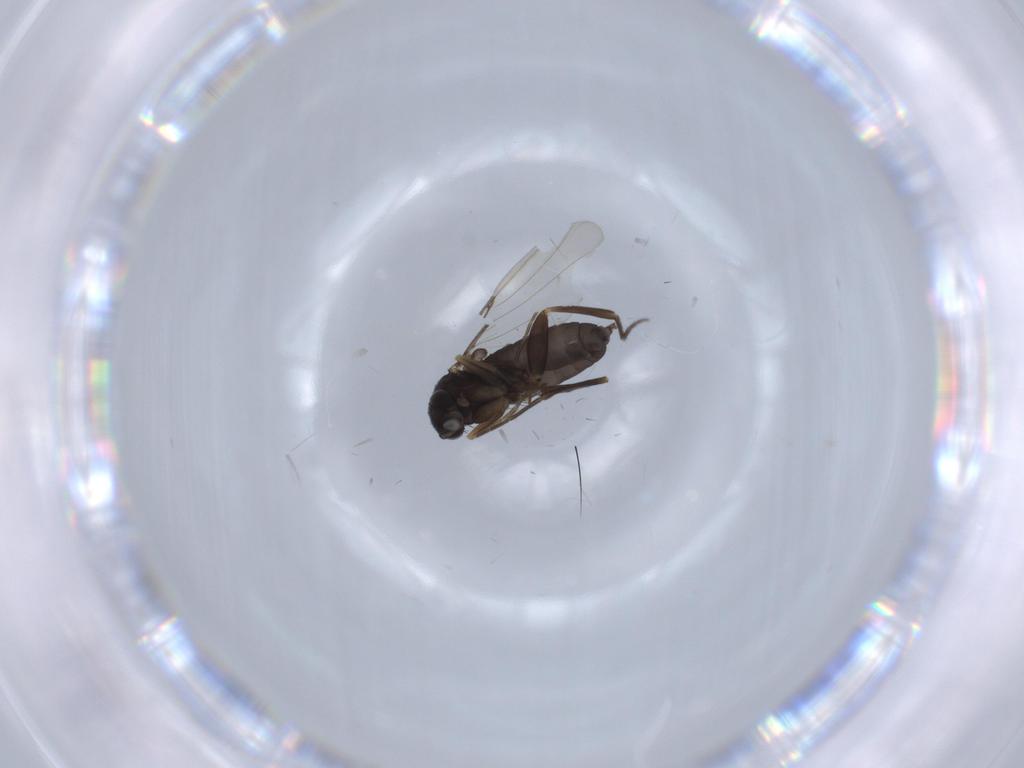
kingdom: Animalia
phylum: Arthropoda
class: Insecta
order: Diptera
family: Phoridae
